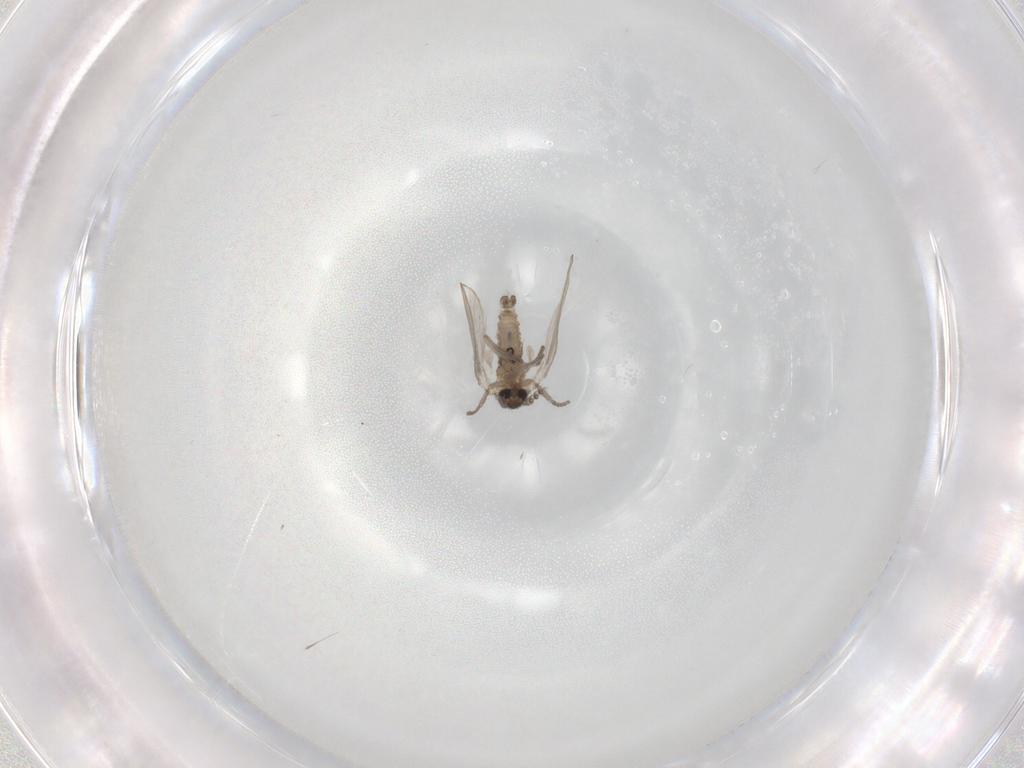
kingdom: Animalia
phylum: Arthropoda
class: Insecta
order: Diptera
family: Psychodidae
